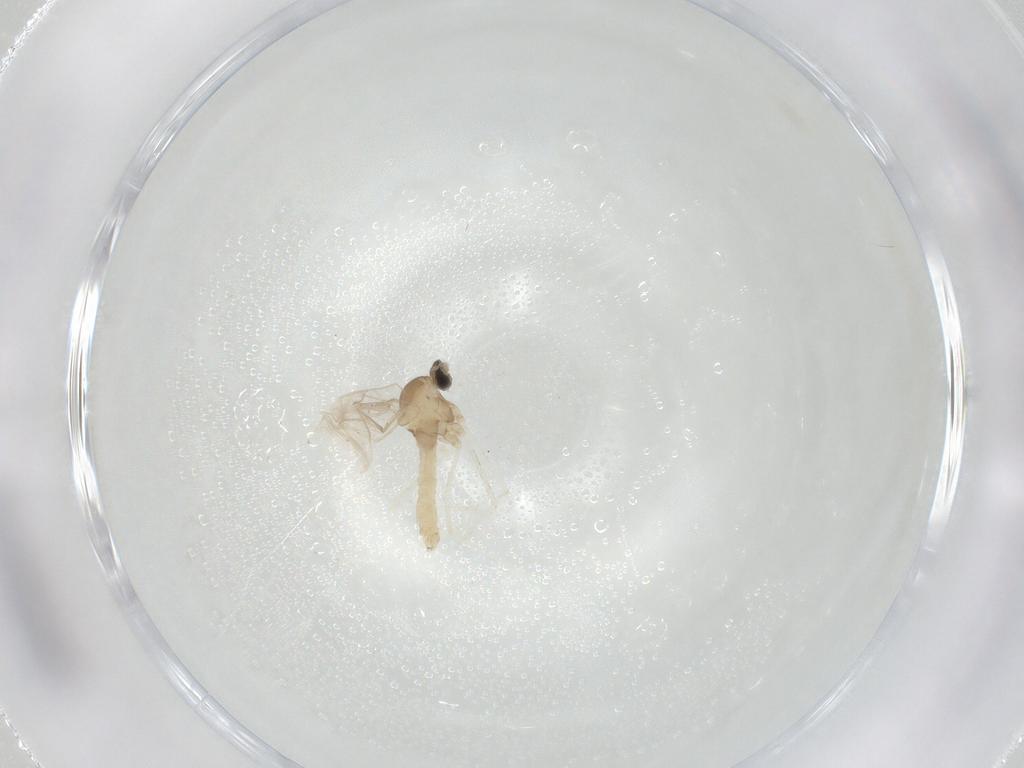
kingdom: Animalia
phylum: Arthropoda
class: Insecta
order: Diptera
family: Cecidomyiidae
